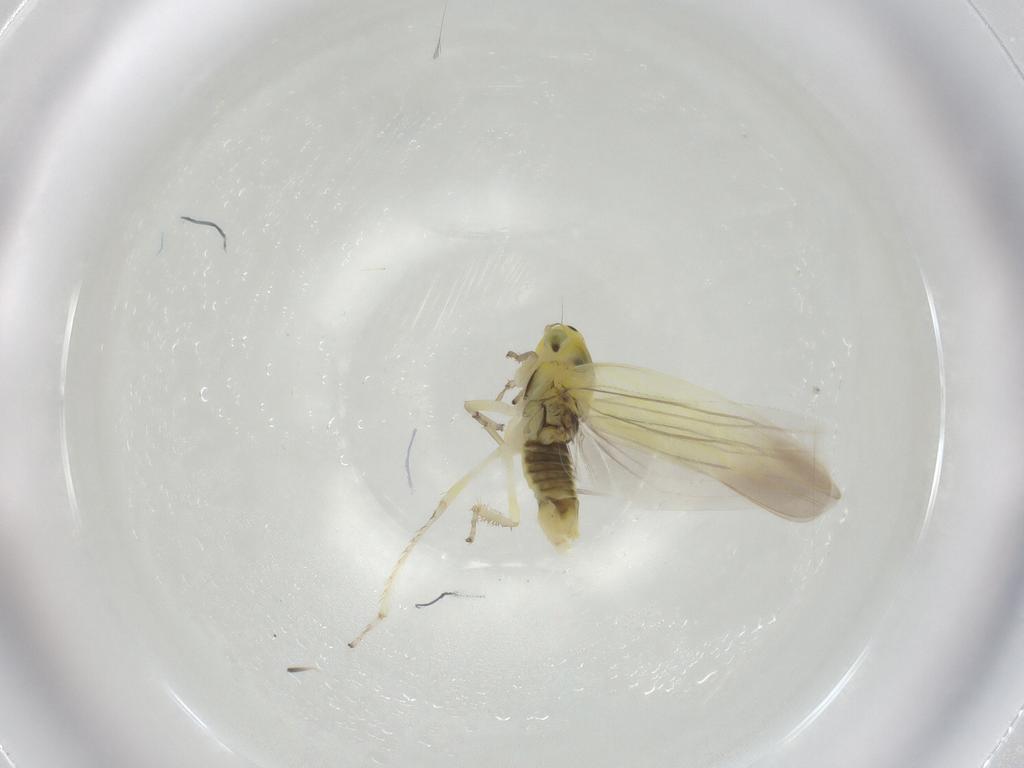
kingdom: Animalia
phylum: Arthropoda
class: Insecta
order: Hemiptera
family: Cicadellidae
